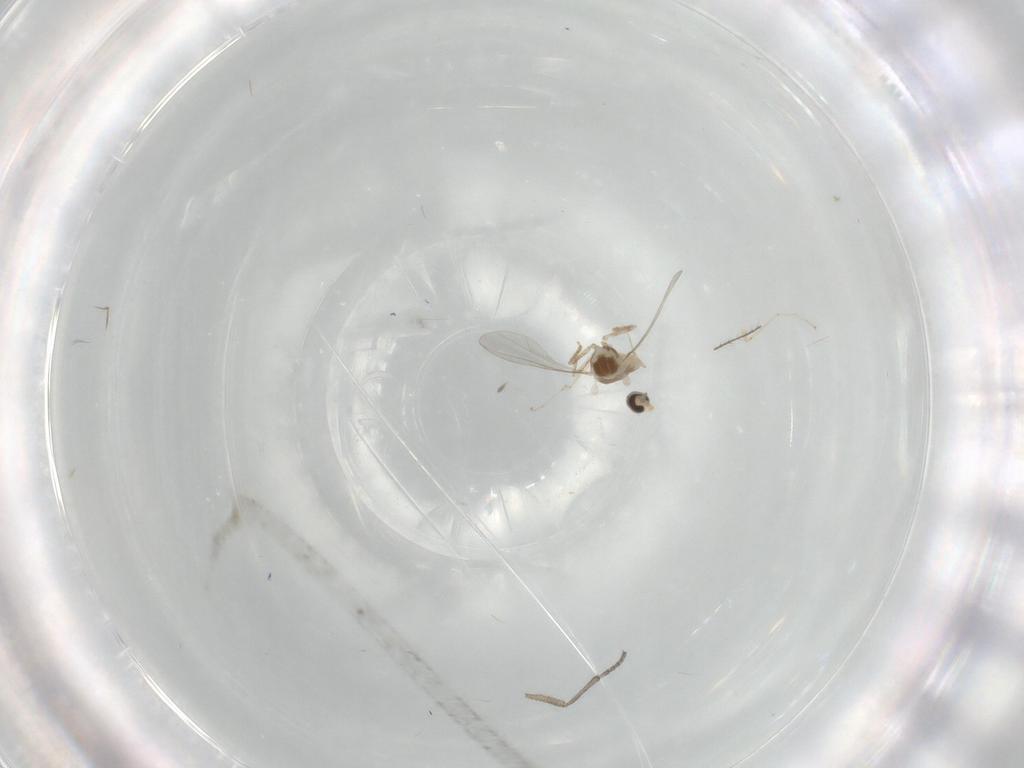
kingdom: Animalia
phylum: Arthropoda
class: Insecta
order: Diptera
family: Cecidomyiidae
